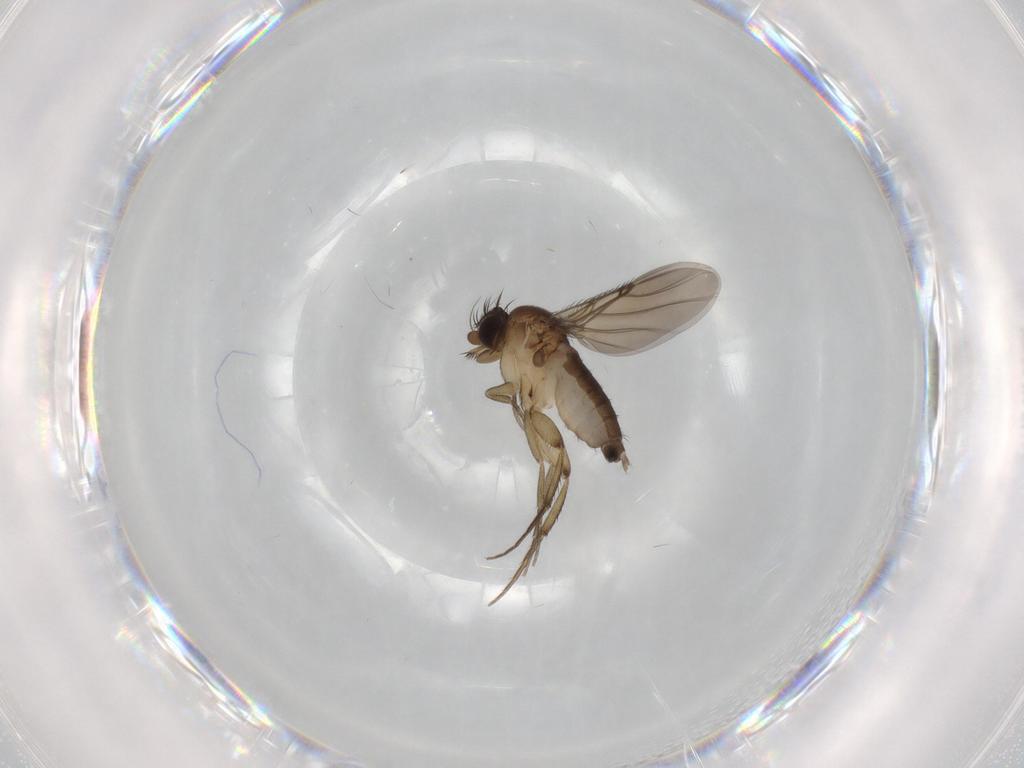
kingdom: Animalia
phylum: Arthropoda
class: Insecta
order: Diptera
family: Phoridae
